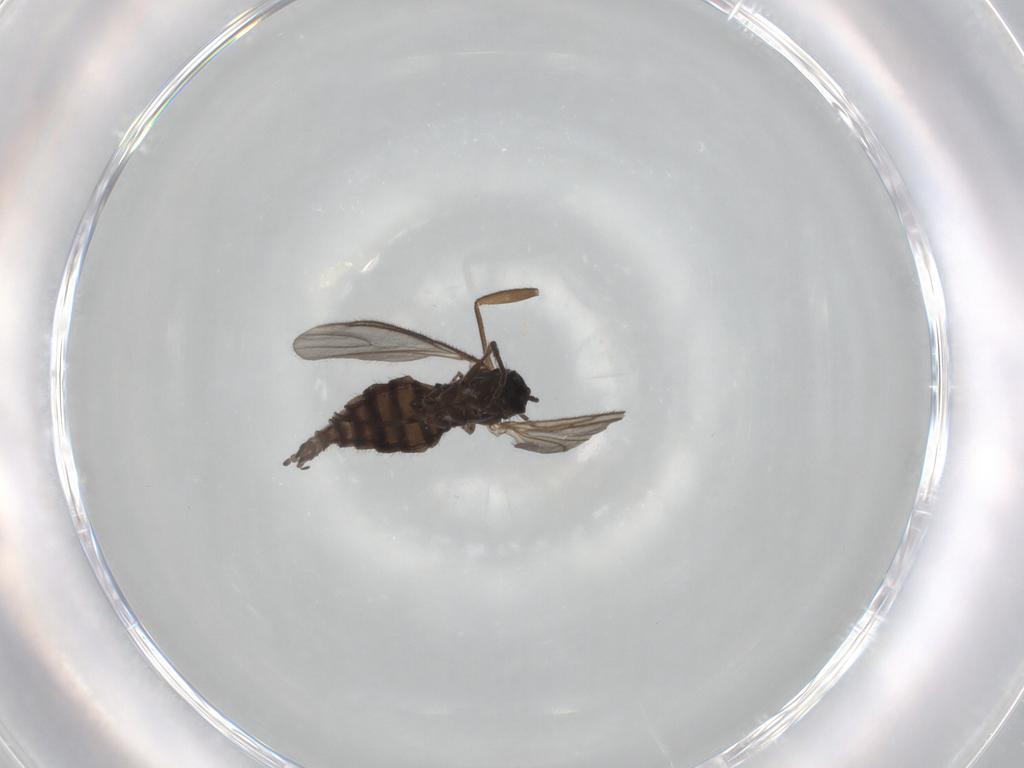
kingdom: Animalia
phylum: Arthropoda
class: Insecta
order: Diptera
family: Sciaridae
